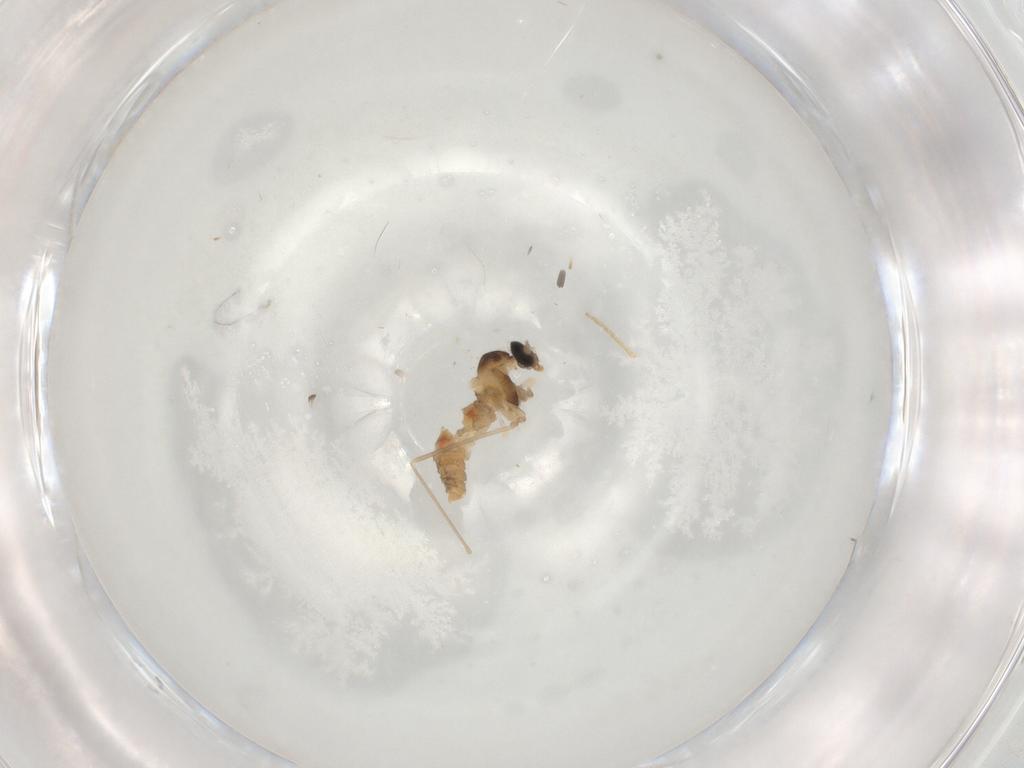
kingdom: Animalia
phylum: Arthropoda
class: Insecta
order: Diptera
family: Cecidomyiidae
